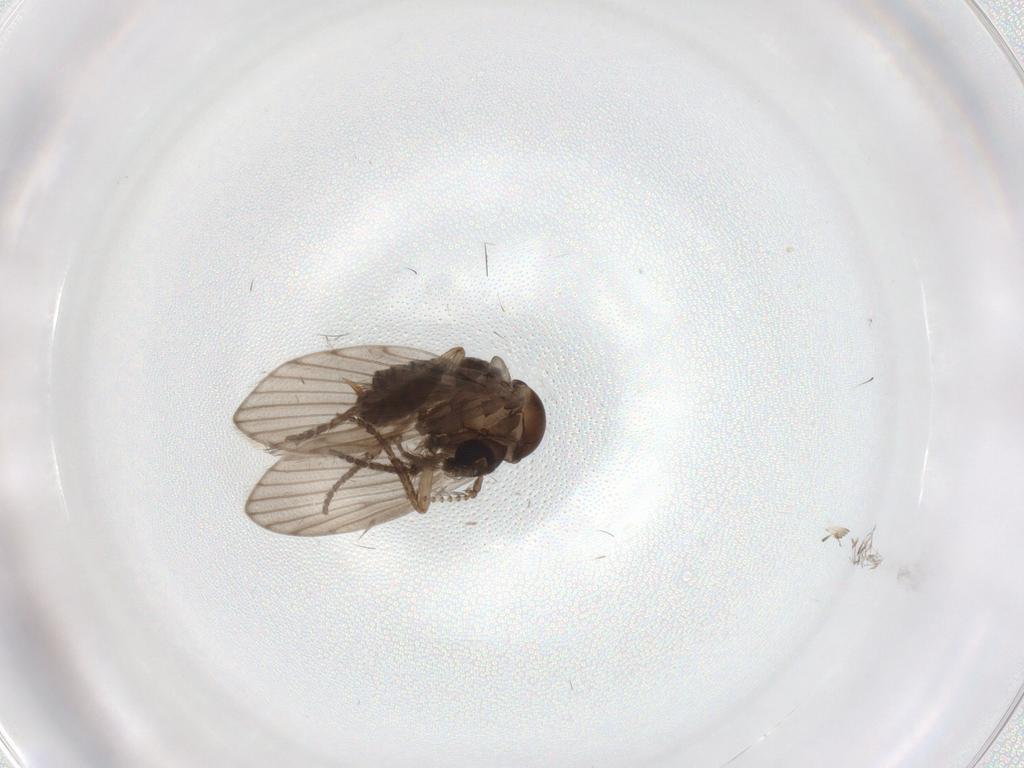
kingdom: Animalia
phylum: Arthropoda
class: Insecta
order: Diptera
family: Psychodidae
